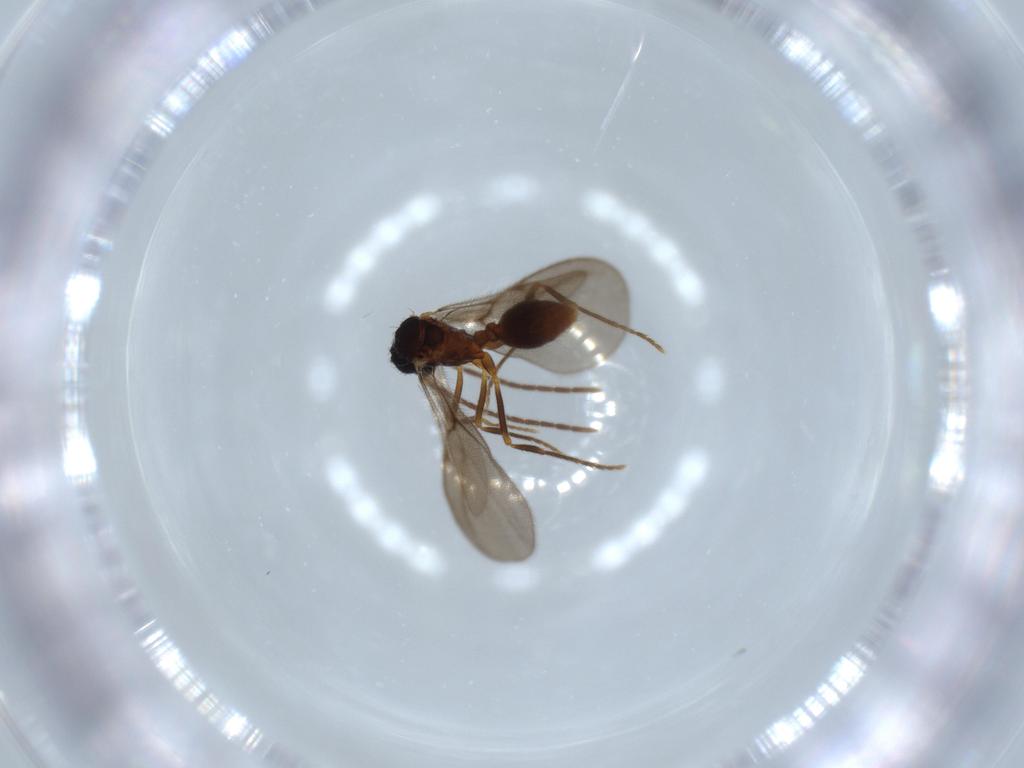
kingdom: Animalia
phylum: Arthropoda
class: Insecta
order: Hymenoptera
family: Formicidae
